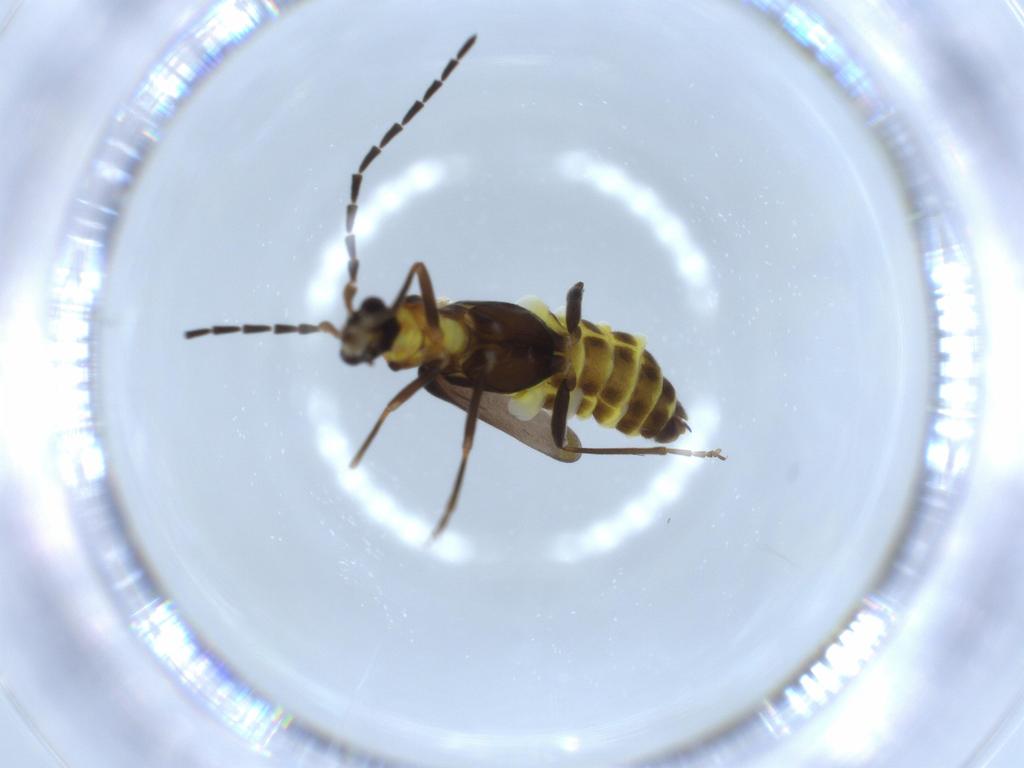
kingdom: Animalia
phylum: Arthropoda
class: Insecta
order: Coleoptera
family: Cantharidae
